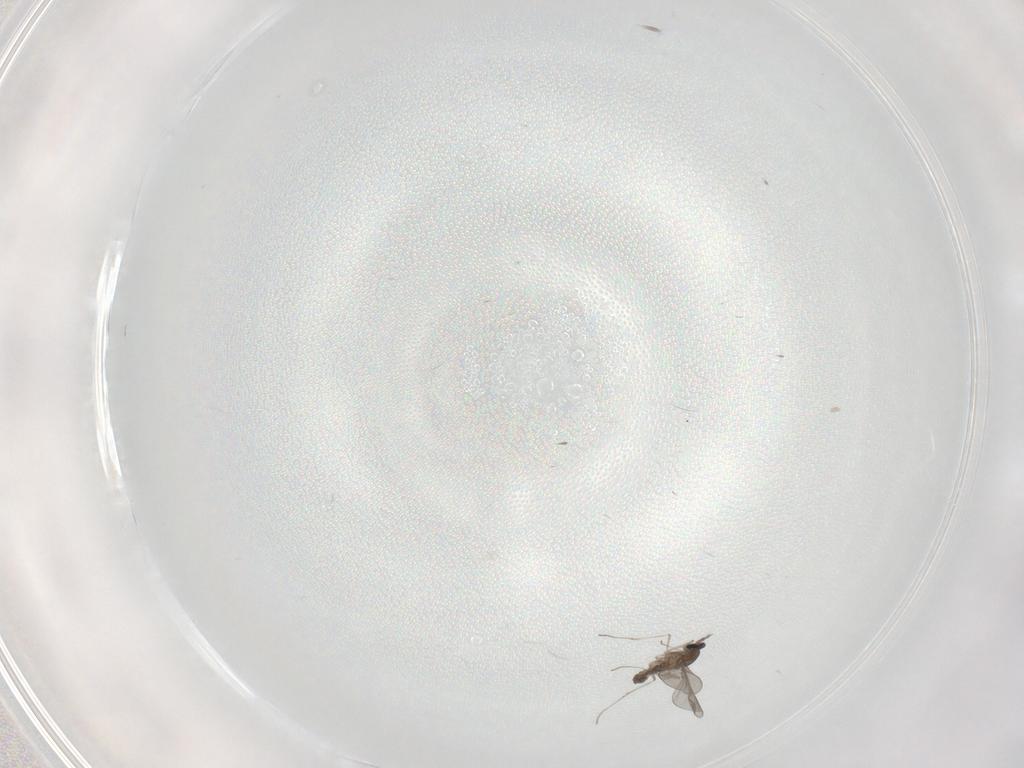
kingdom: Animalia
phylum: Arthropoda
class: Insecta
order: Diptera
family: Cecidomyiidae
